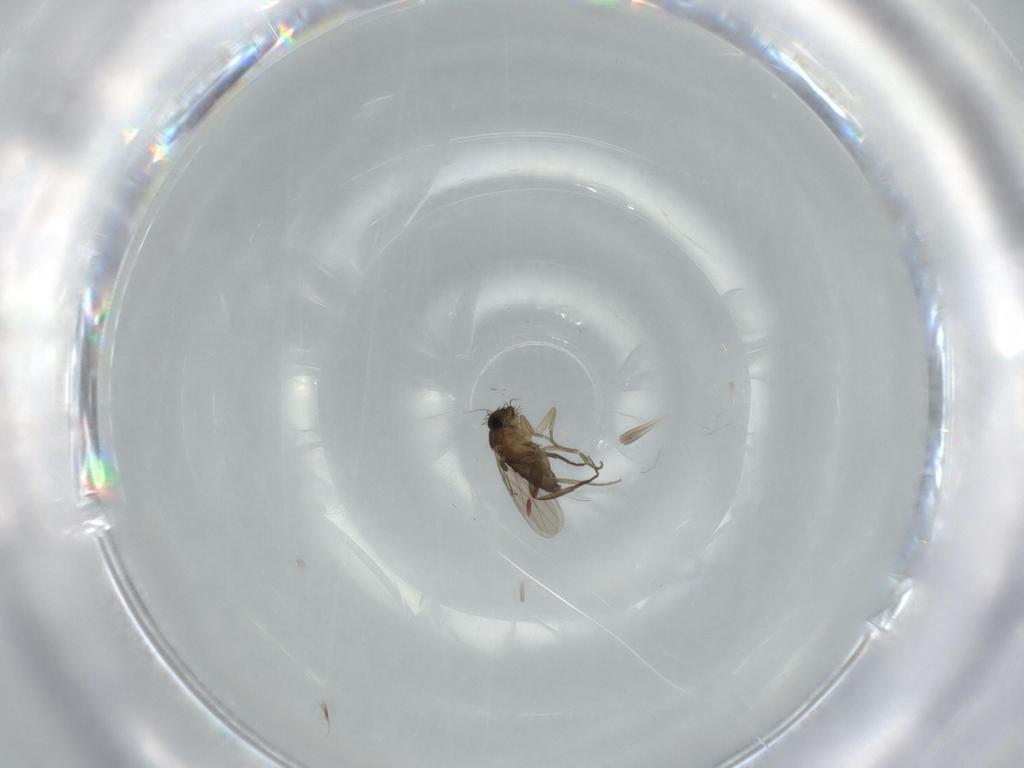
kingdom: Animalia
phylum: Arthropoda
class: Insecta
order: Diptera
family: Phoridae
